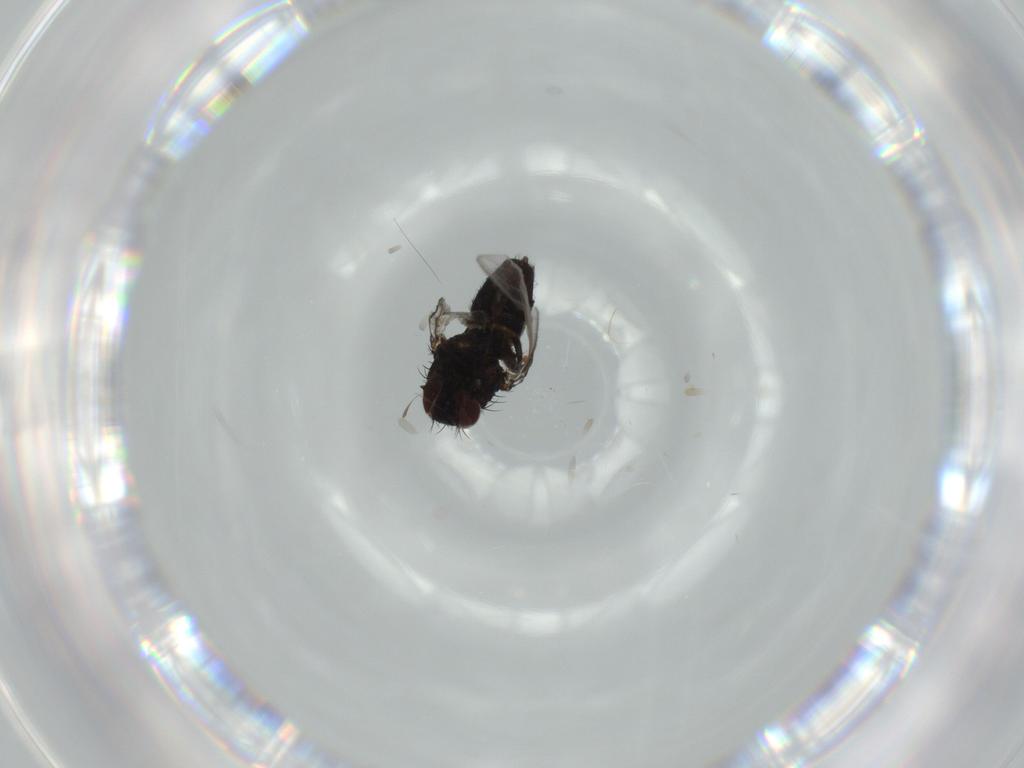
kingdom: Animalia
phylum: Arthropoda
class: Insecta
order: Diptera
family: Milichiidae
